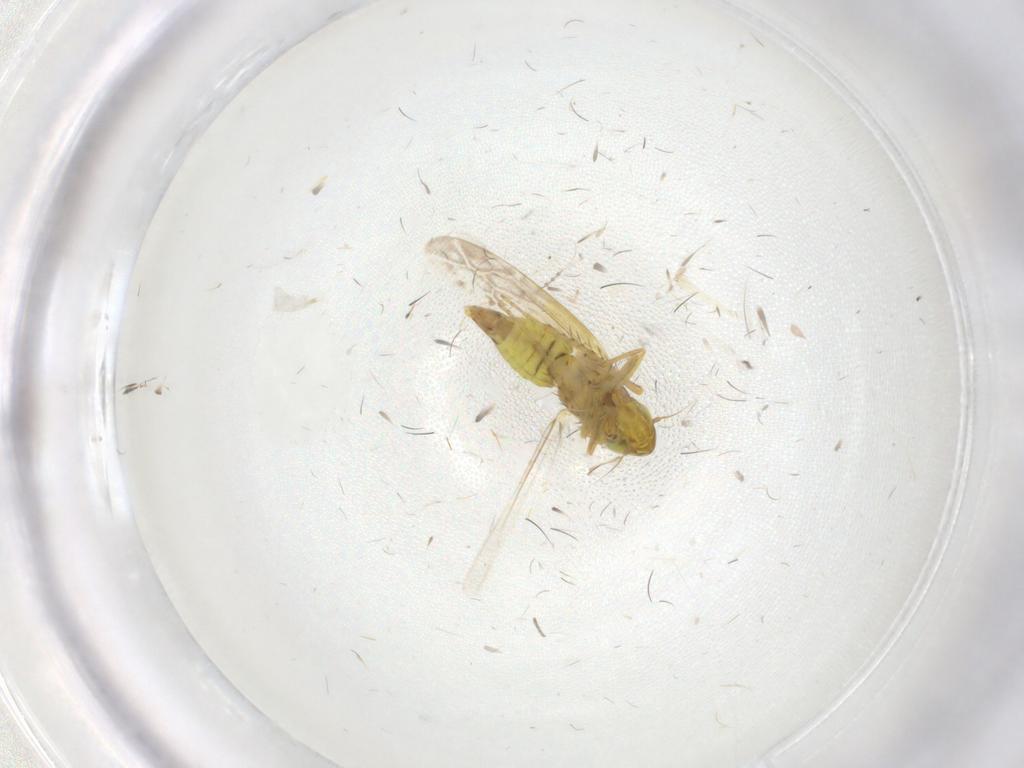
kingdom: Animalia
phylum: Arthropoda
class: Insecta
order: Hemiptera
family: Cicadellidae
